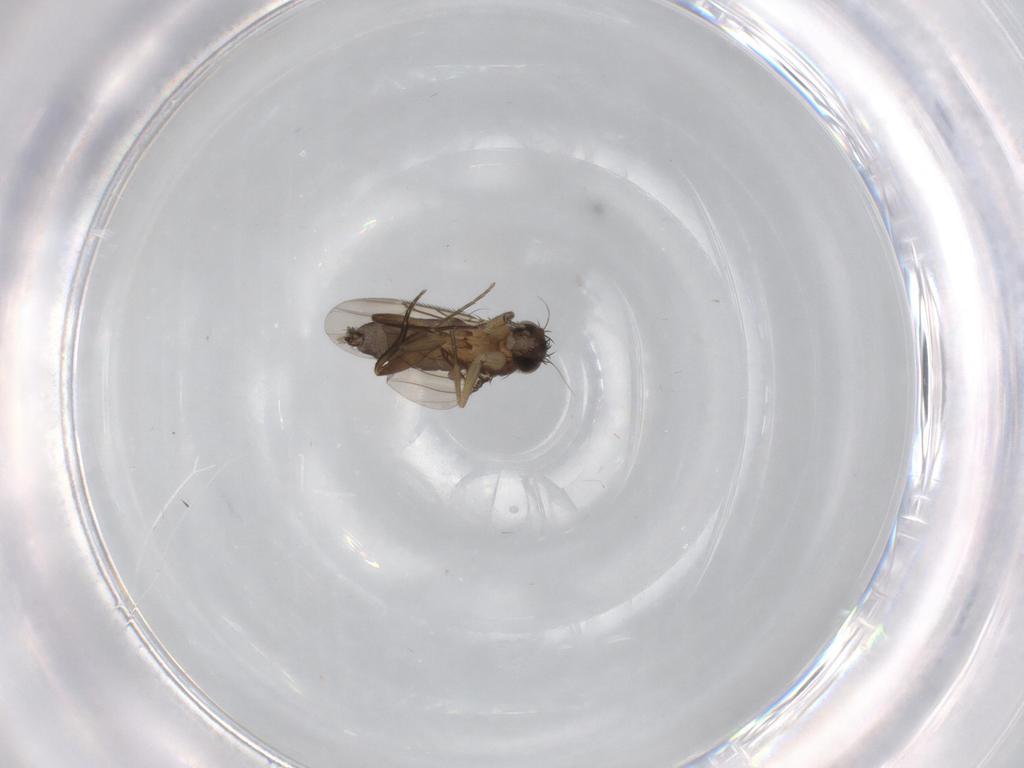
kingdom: Animalia
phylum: Arthropoda
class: Insecta
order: Diptera
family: Phoridae
